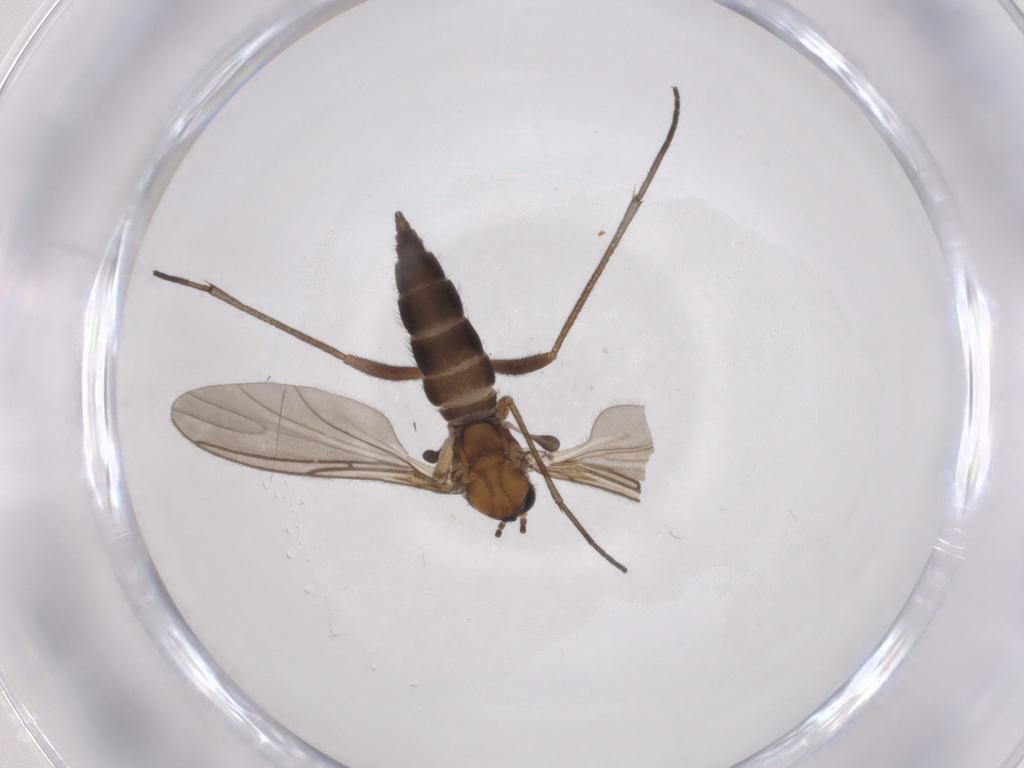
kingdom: Animalia
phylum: Arthropoda
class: Insecta
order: Diptera
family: Sciaridae
